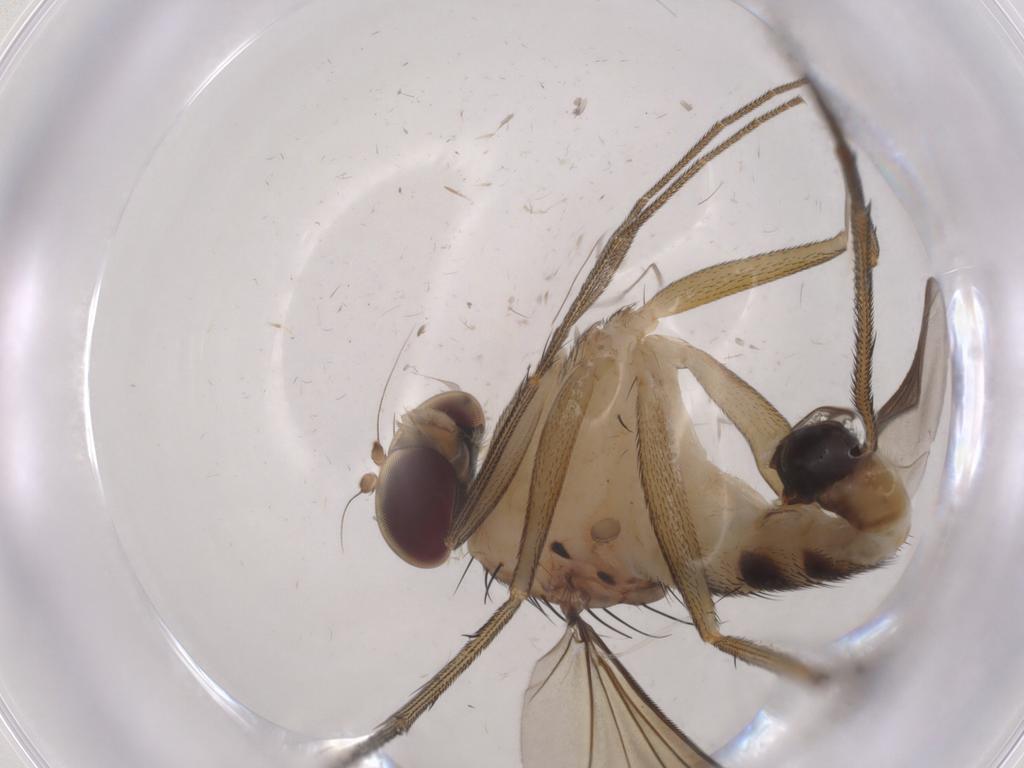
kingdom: Animalia
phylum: Arthropoda
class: Insecta
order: Diptera
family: Dolichopodidae
